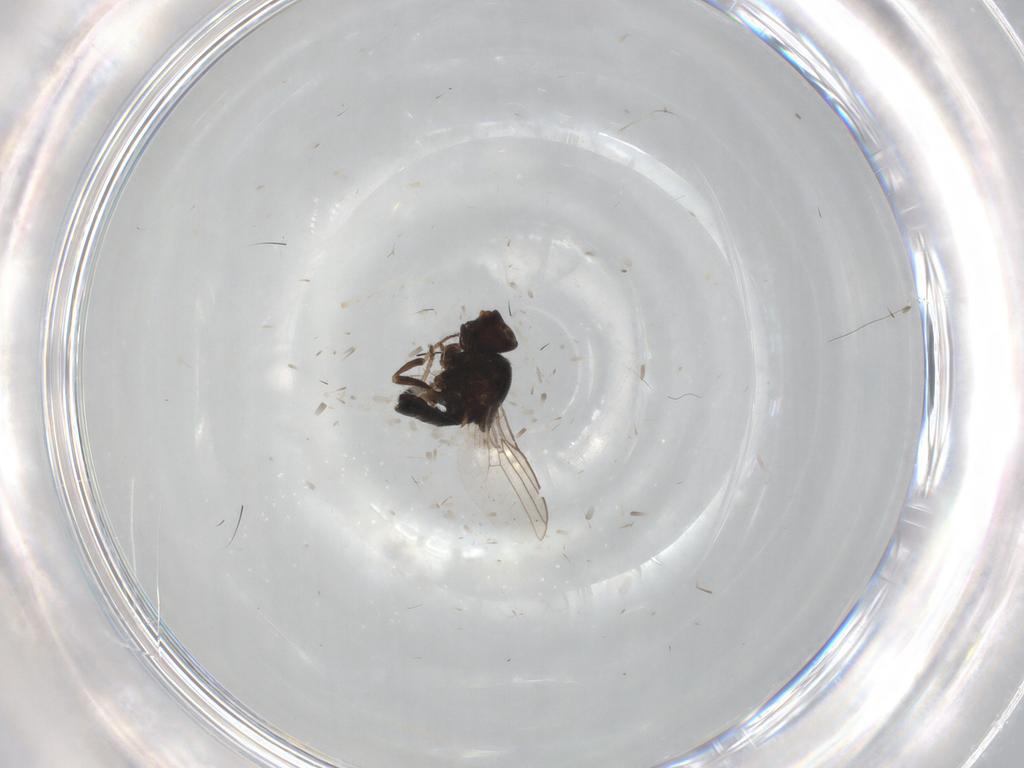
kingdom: Animalia
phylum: Arthropoda
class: Insecta
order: Diptera
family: Chloropidae
